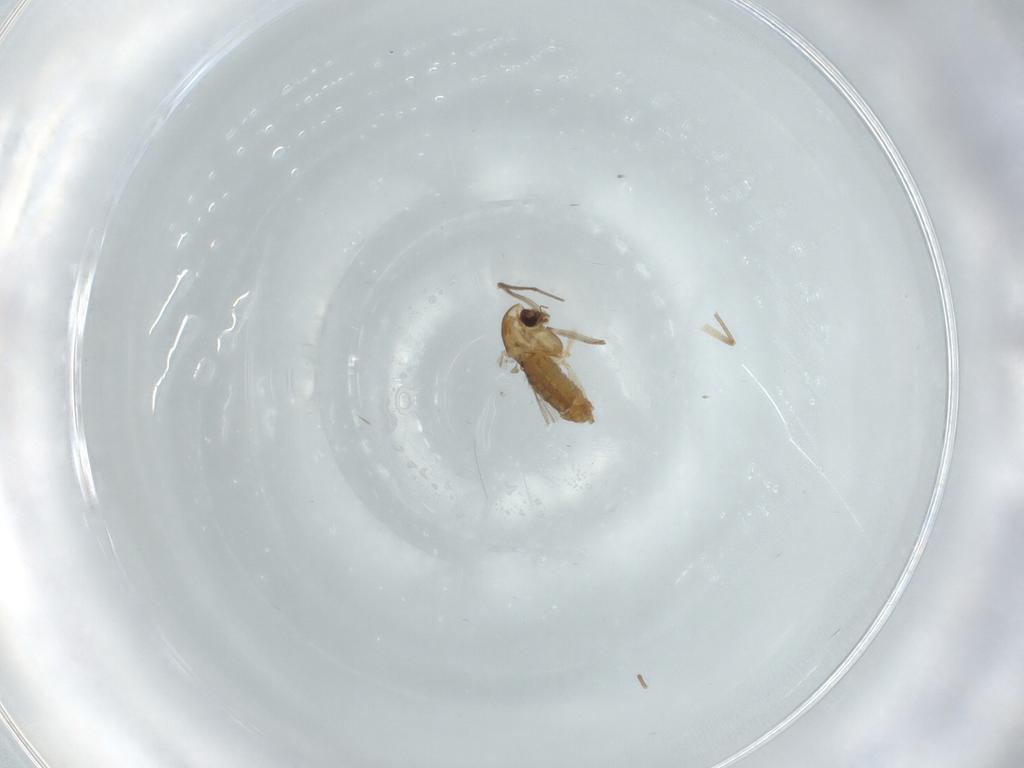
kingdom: Animalia
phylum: Arthropoda
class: Insecta
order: Diptera
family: Chironomidae
